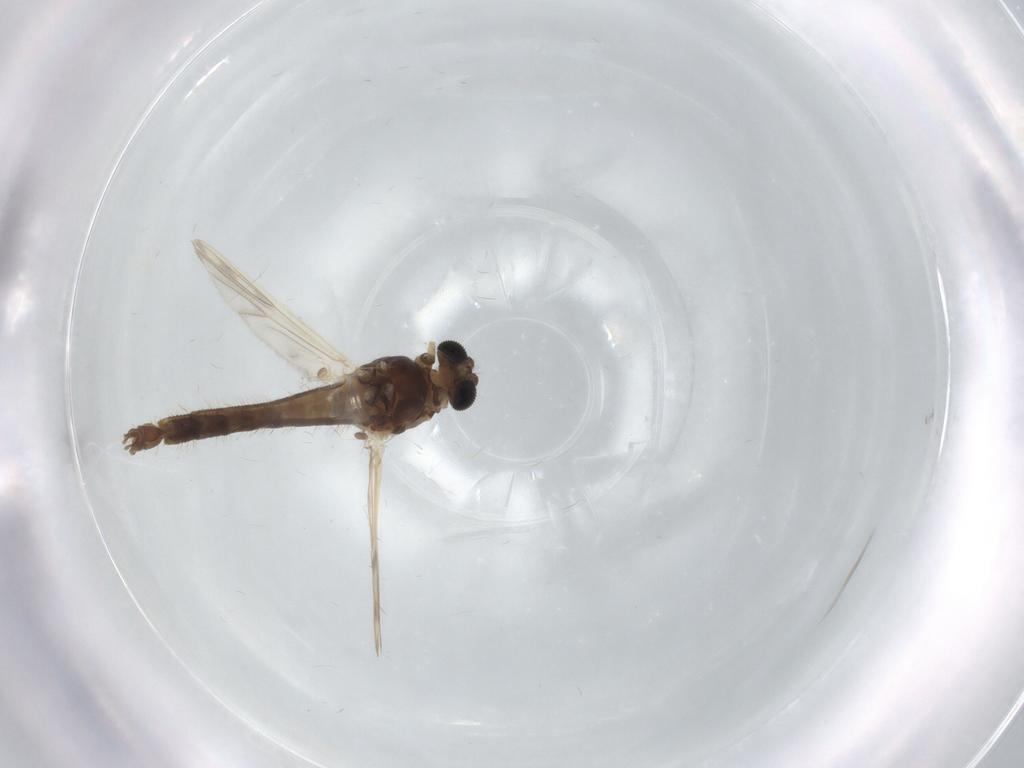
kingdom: Animalia
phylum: Arthropoda
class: Insecta
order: Diptera
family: Chironomidae
